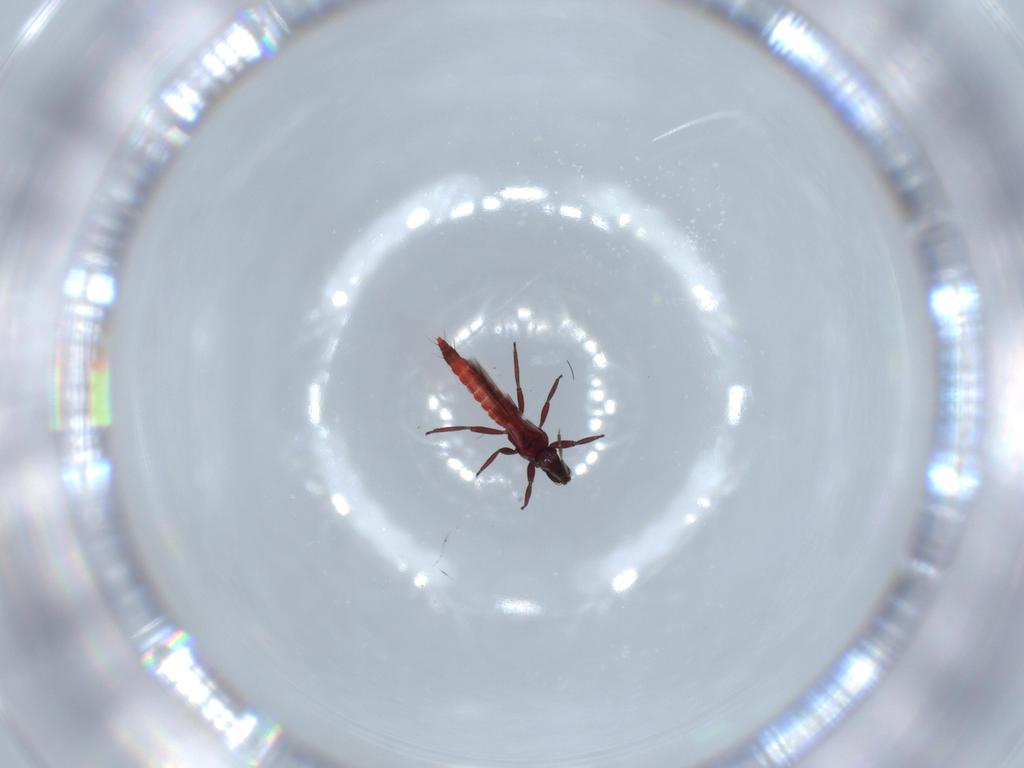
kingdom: Animalia
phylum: Arthropoda
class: Insecta
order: Thysanoptera
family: Aeolothripidae
